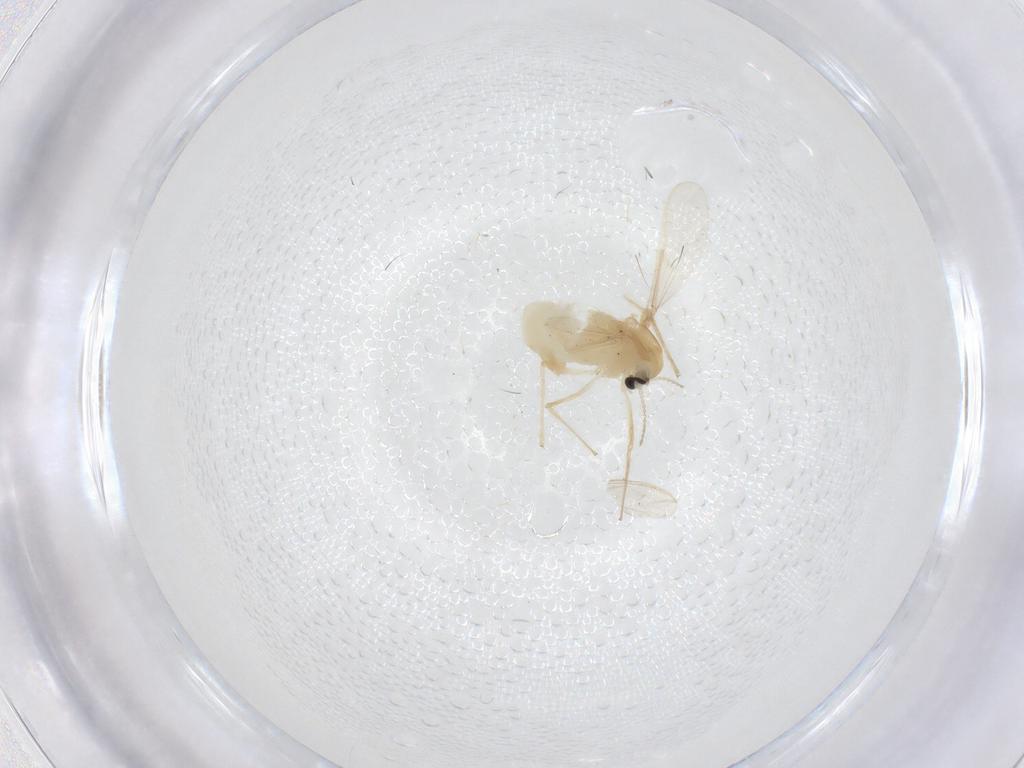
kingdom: Animalia
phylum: Arthropoda
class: Insecta
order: Diptera
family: Chironomidae
